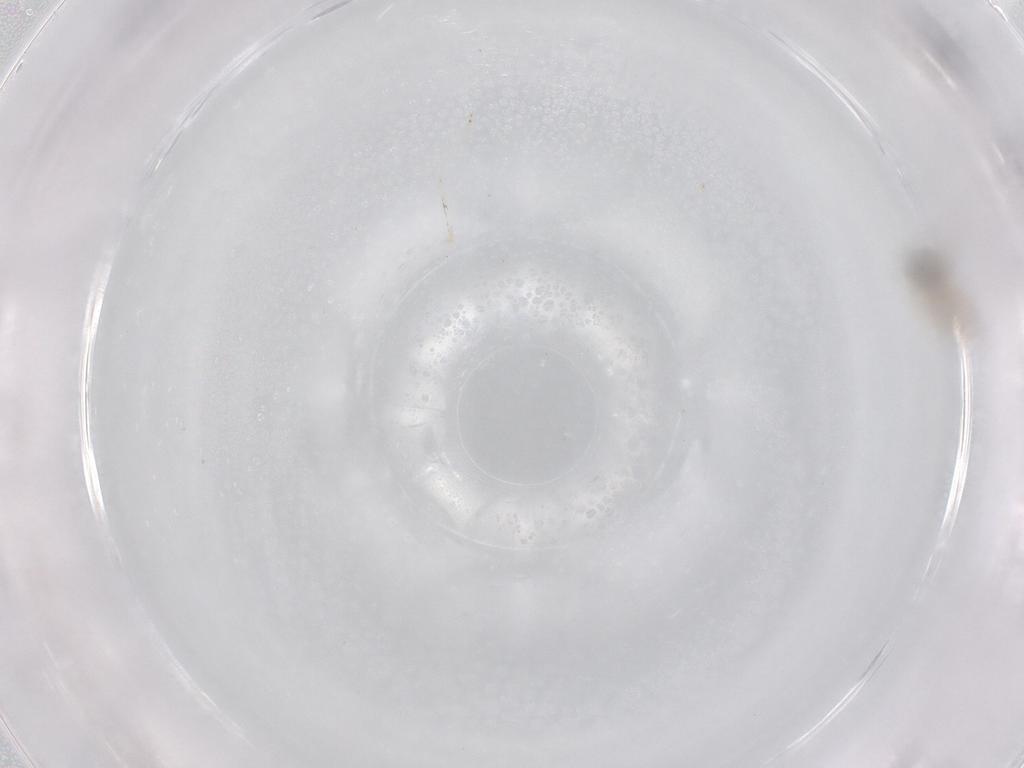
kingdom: Animalia
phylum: Arthropoda
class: Insecta
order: Diptera
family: Cecidomyiidae
